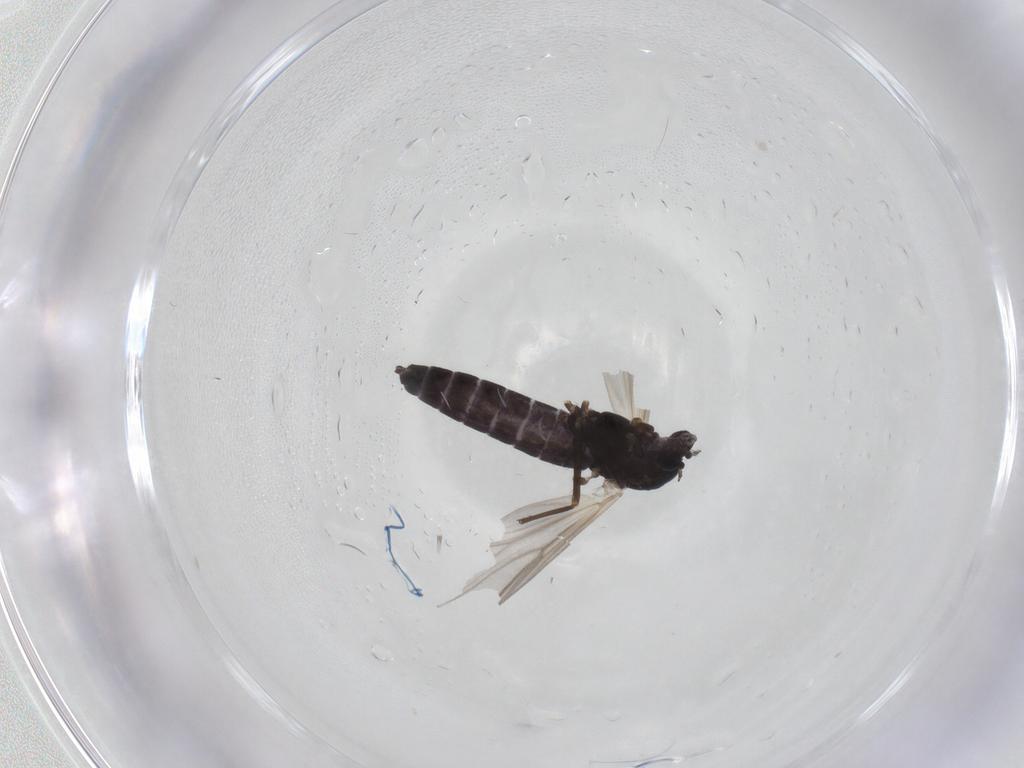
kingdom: Animalia
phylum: Arthropoda
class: Insecta
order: Diptera
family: Chironomidae
